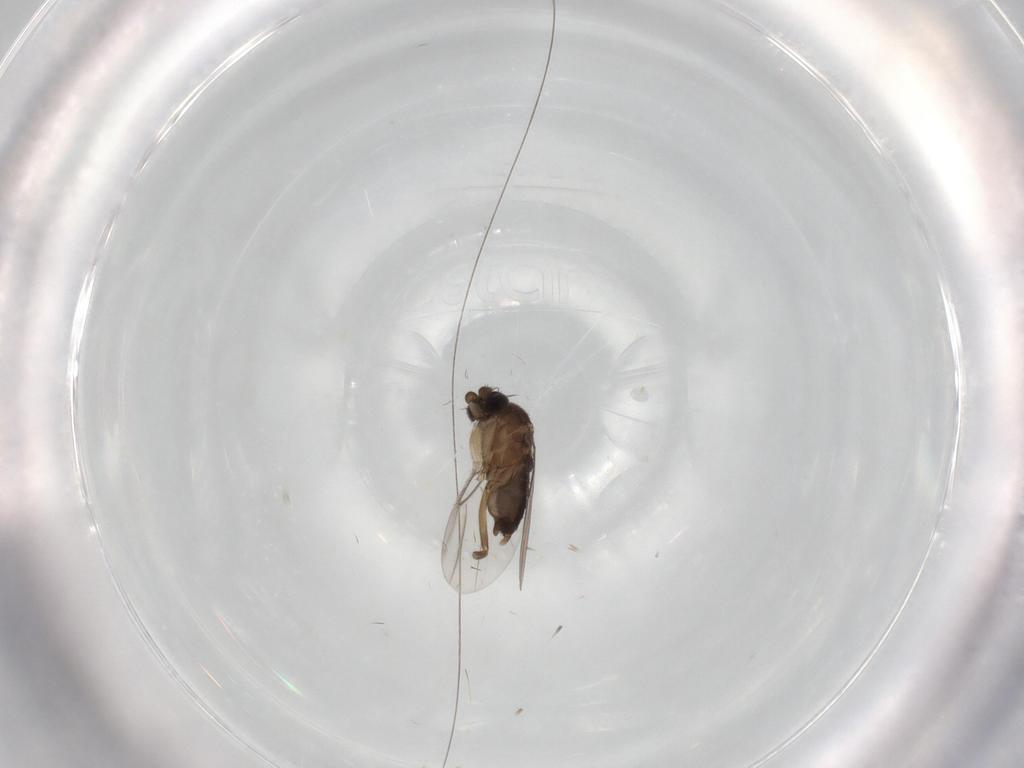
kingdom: Animalia
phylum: Arthropoda
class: Insecta
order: Diptera
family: Phoridae
